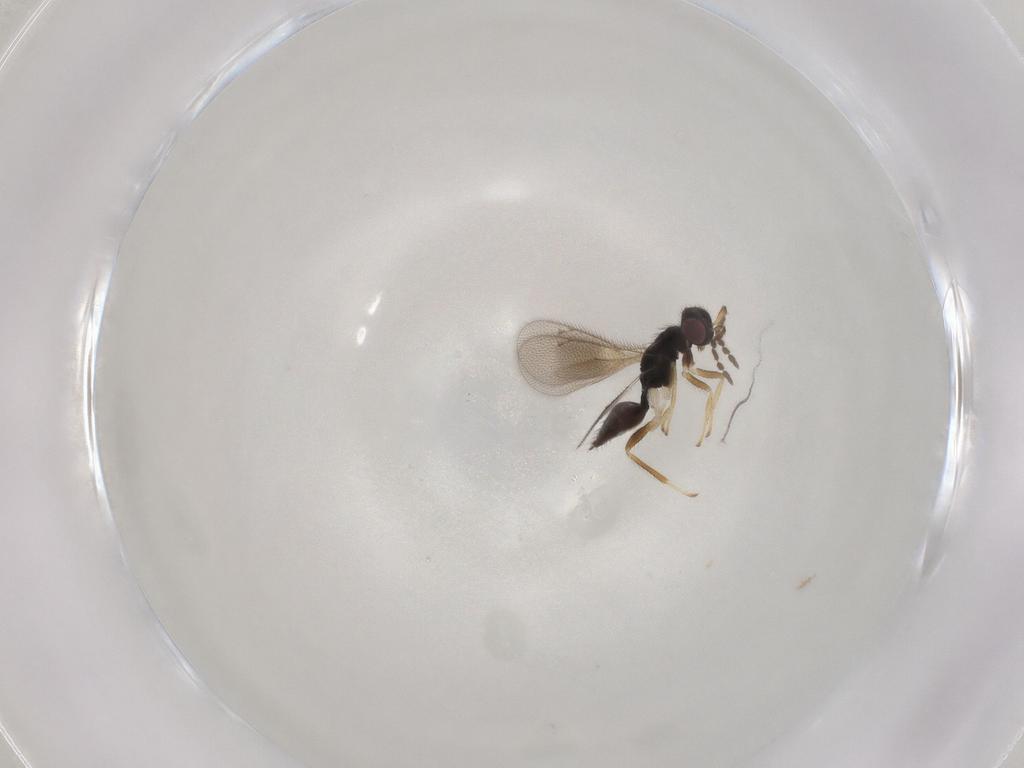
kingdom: Animalia
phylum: Arthropoda
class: Insecta
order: Hymenoptera
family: Eulophidae
